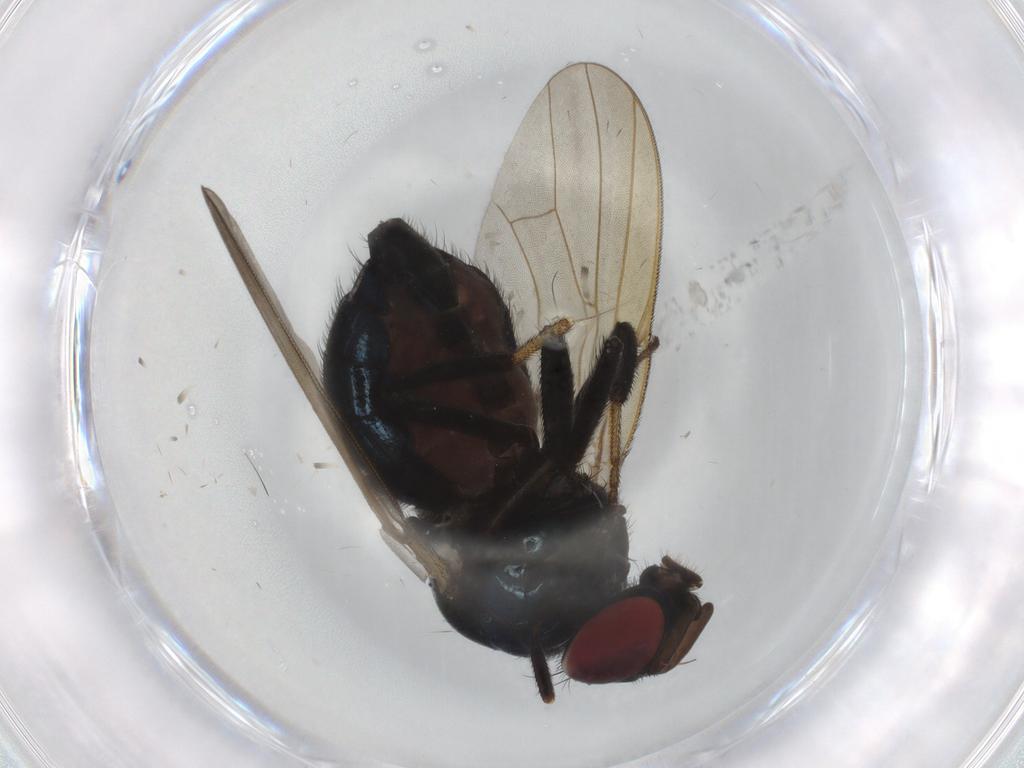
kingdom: Animalia
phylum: Arthropoda
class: Insecta
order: Diptera
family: Lonchaeidae
